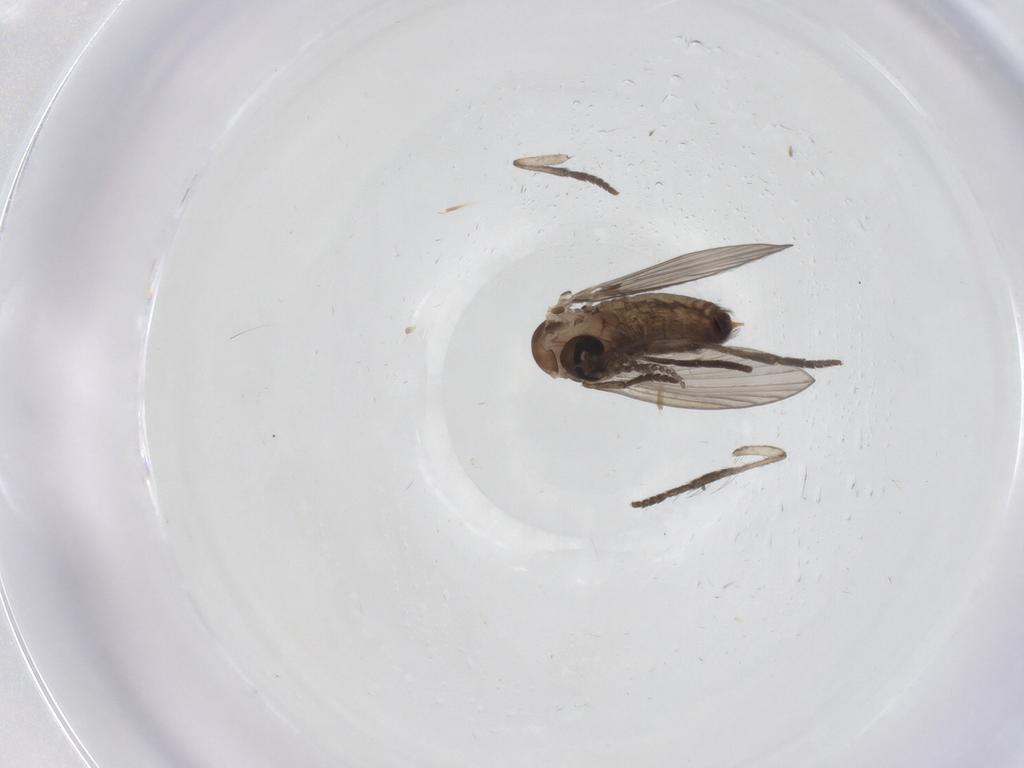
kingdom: Animalia
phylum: Arthropoda
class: Insecta
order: Diptera
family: Psychodidae
